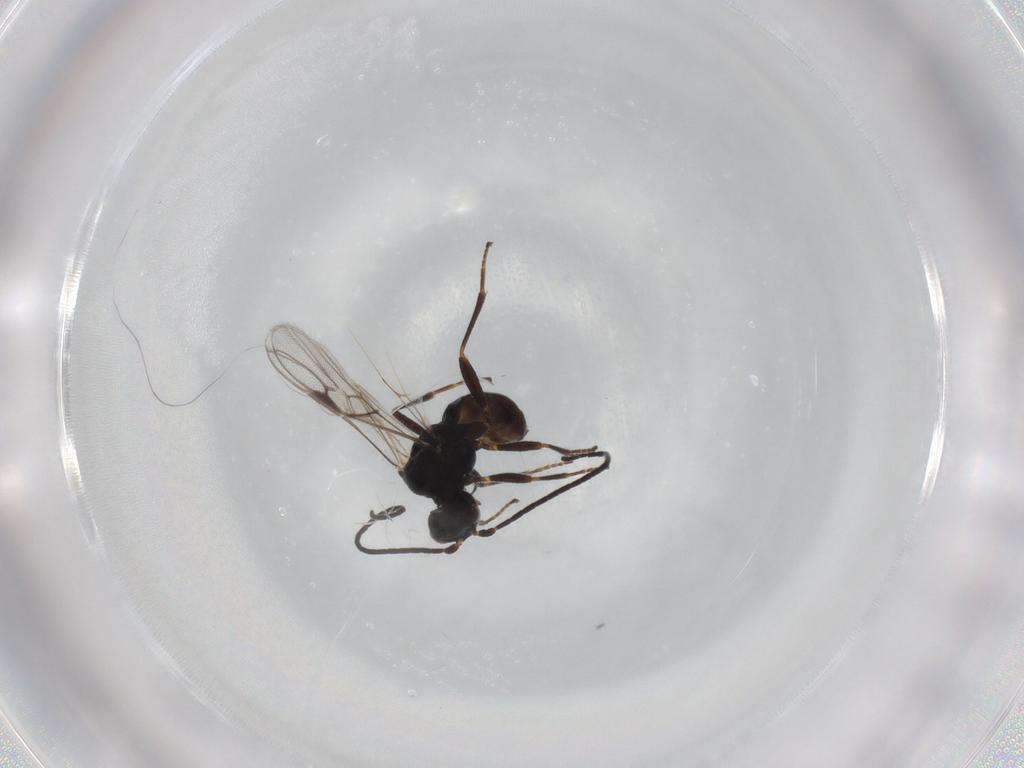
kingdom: Animalia
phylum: Arthropoda
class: Insecta
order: Hymenoptera
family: Braconidae
